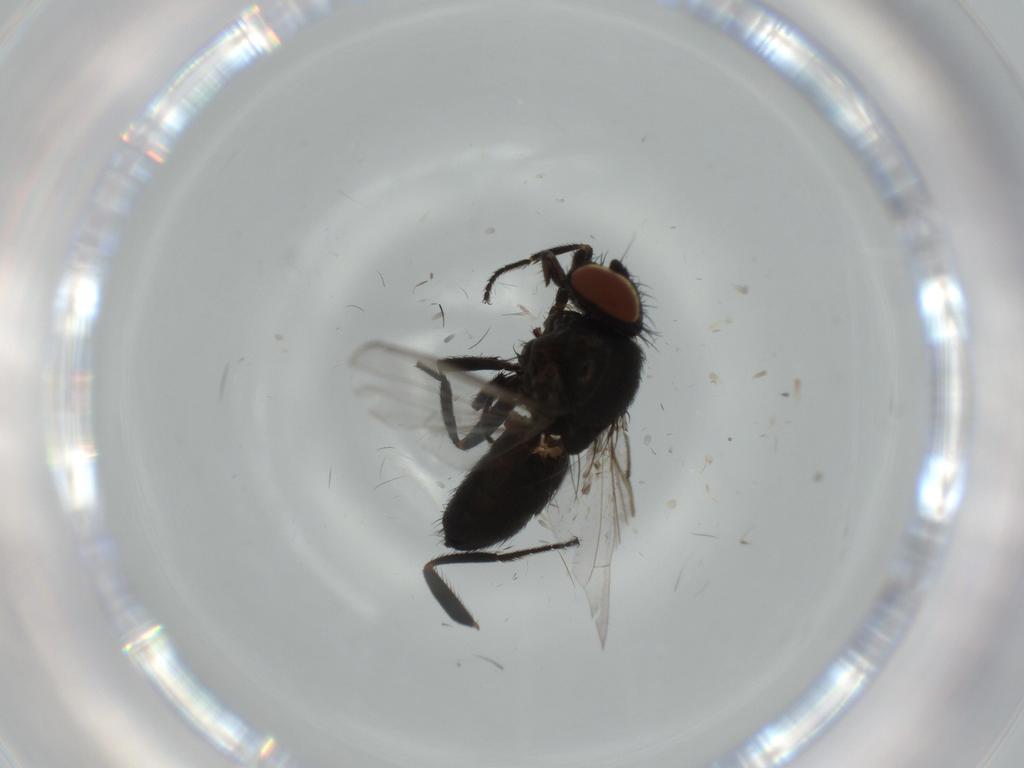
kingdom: Animalia
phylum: Arthropoda
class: Insecta
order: Diptera
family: Milichiidae
